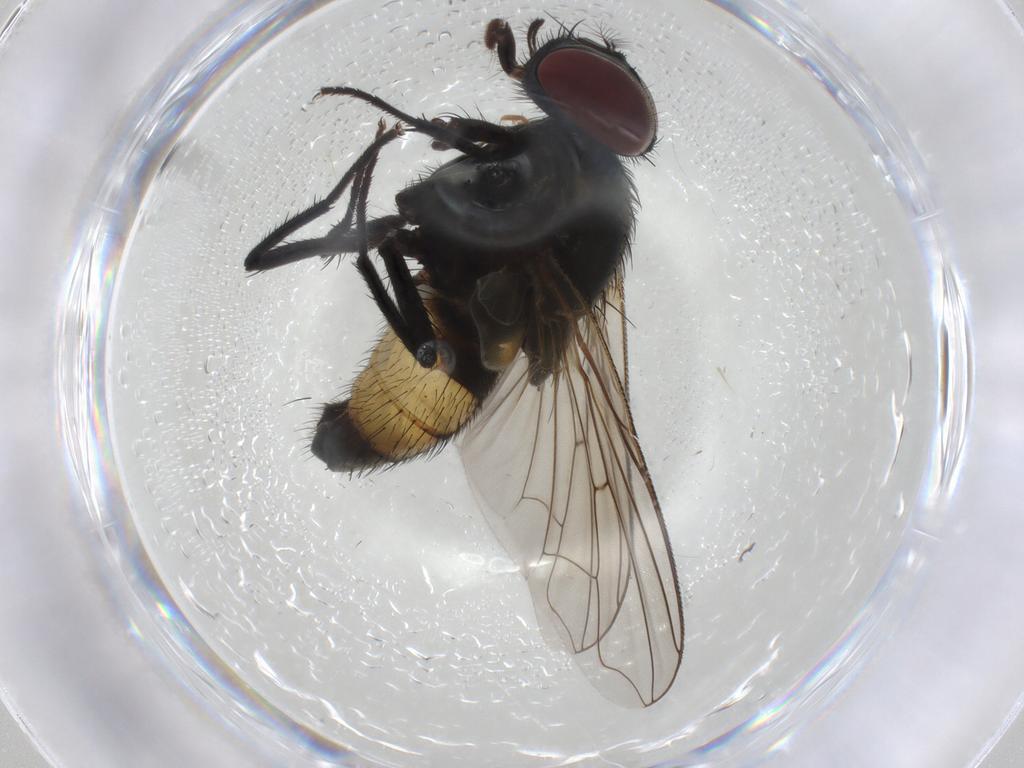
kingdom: Animalia
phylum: Arthropoda
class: Insecta
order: Diptera
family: Muscidae
